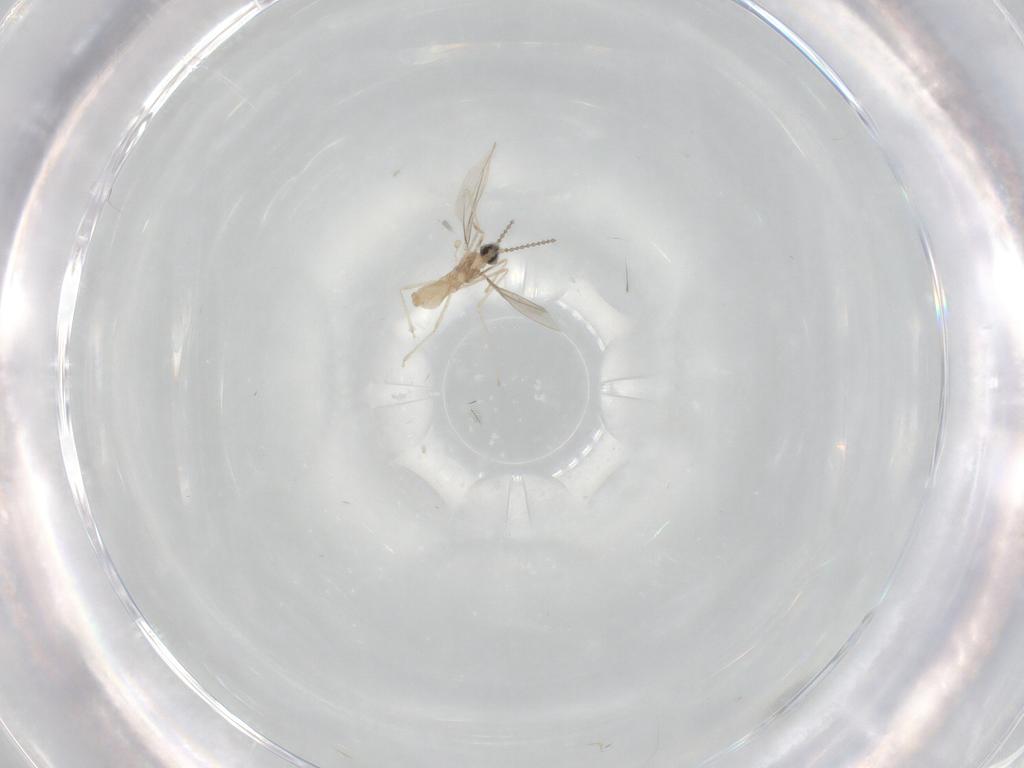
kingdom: Animalia
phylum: Arthropoda
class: Insecta
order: Diptera
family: Cecidomyiidae
